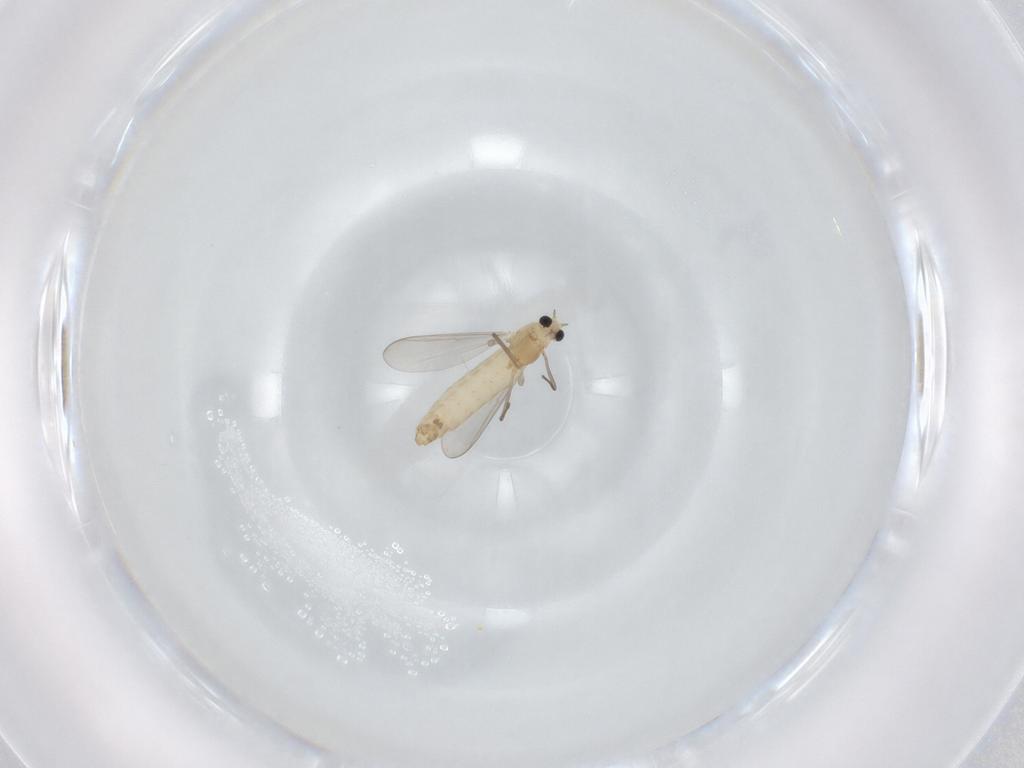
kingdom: Animalia
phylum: Arthropoda
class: Insecta
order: Diptera
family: Chironomidae
